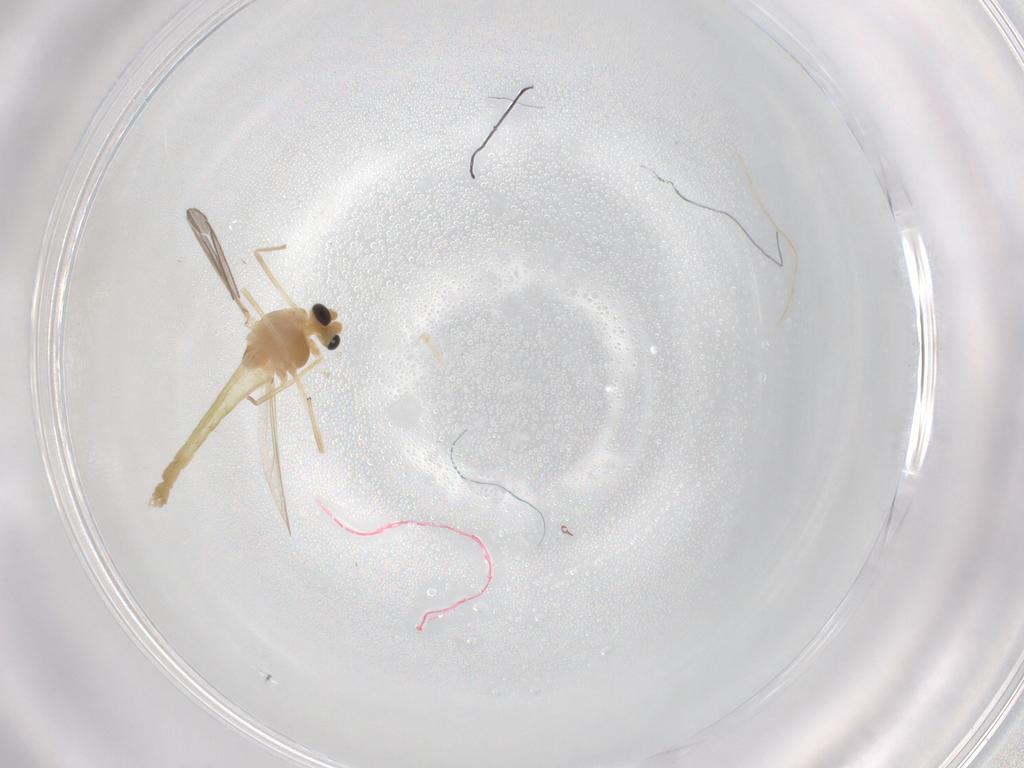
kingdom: Animalia
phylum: Arthropoda
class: Insecta
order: Diptera
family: Chironomidae
